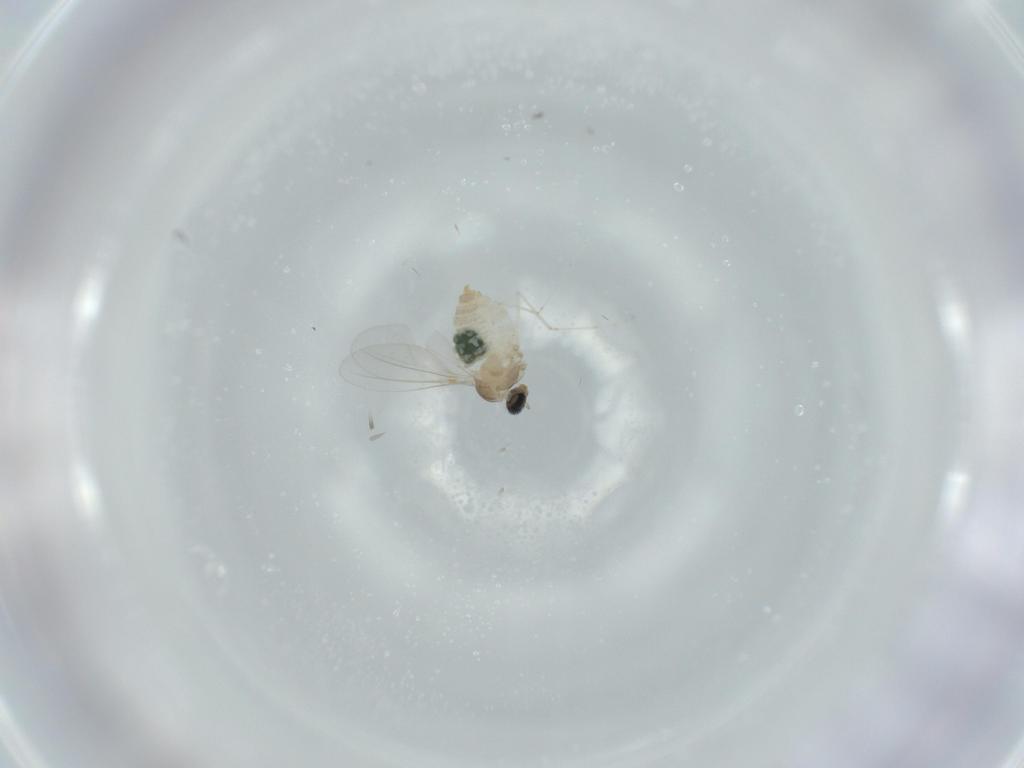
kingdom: Animalia
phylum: Arthropoda
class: Insecta
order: Diptera
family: Cecidomyiidae
